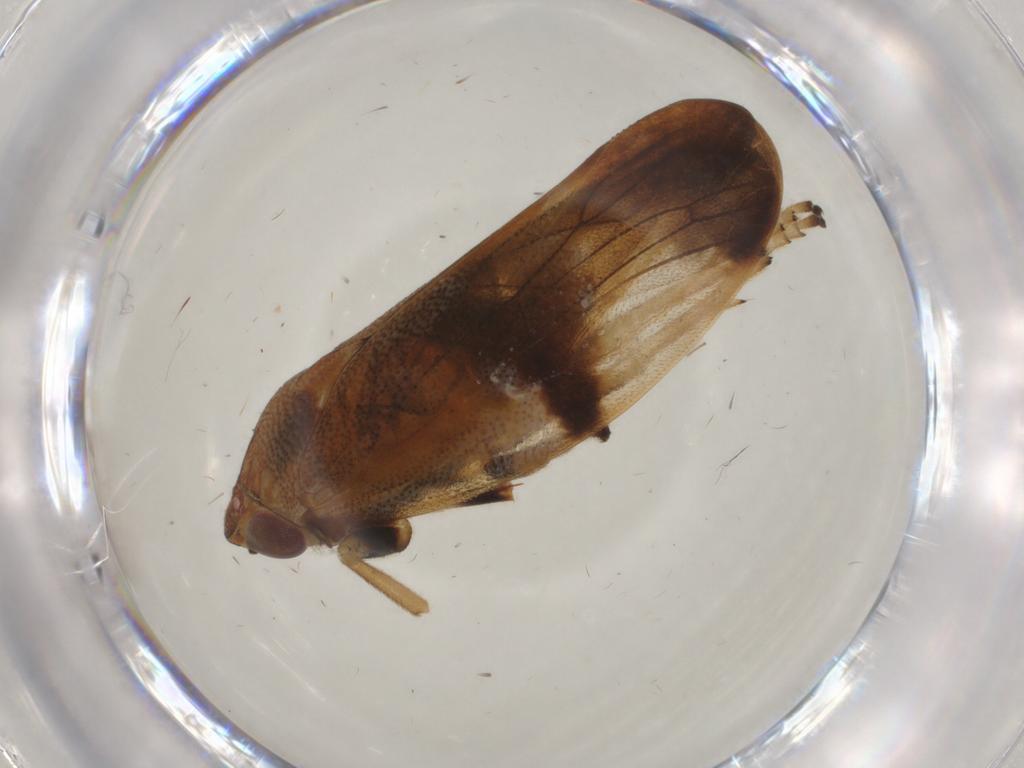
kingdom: Animalia
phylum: Arthropoda
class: Insecta
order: Hemiptera
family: Aphrophoridae
